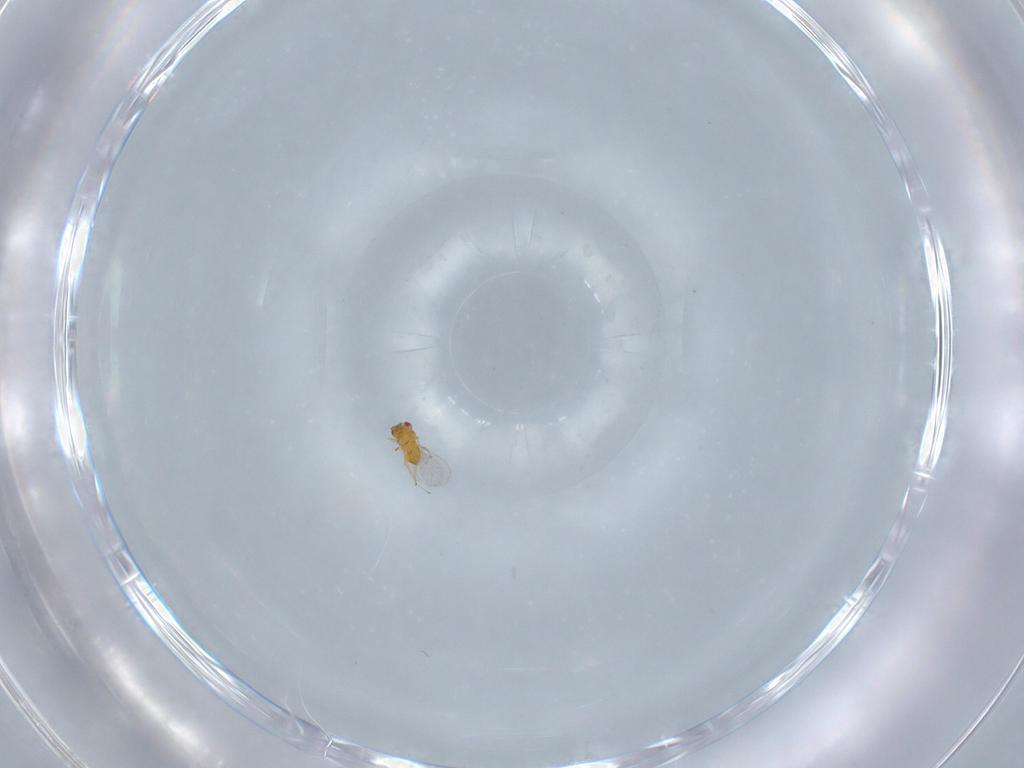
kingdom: Animalia
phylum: Arthropoda
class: Insecta
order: Hymenoptera
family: Trichogrammatidae
